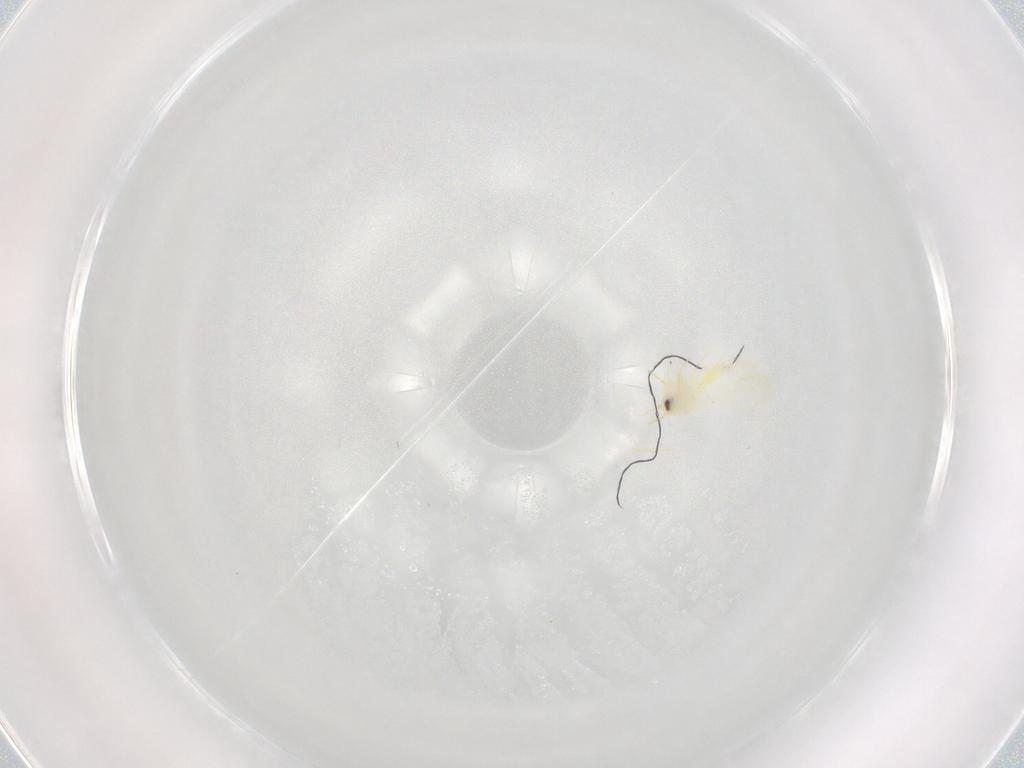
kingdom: Animalia
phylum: Arthropoda
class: Insecta
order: Hemiptera
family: Aleyrodidae
